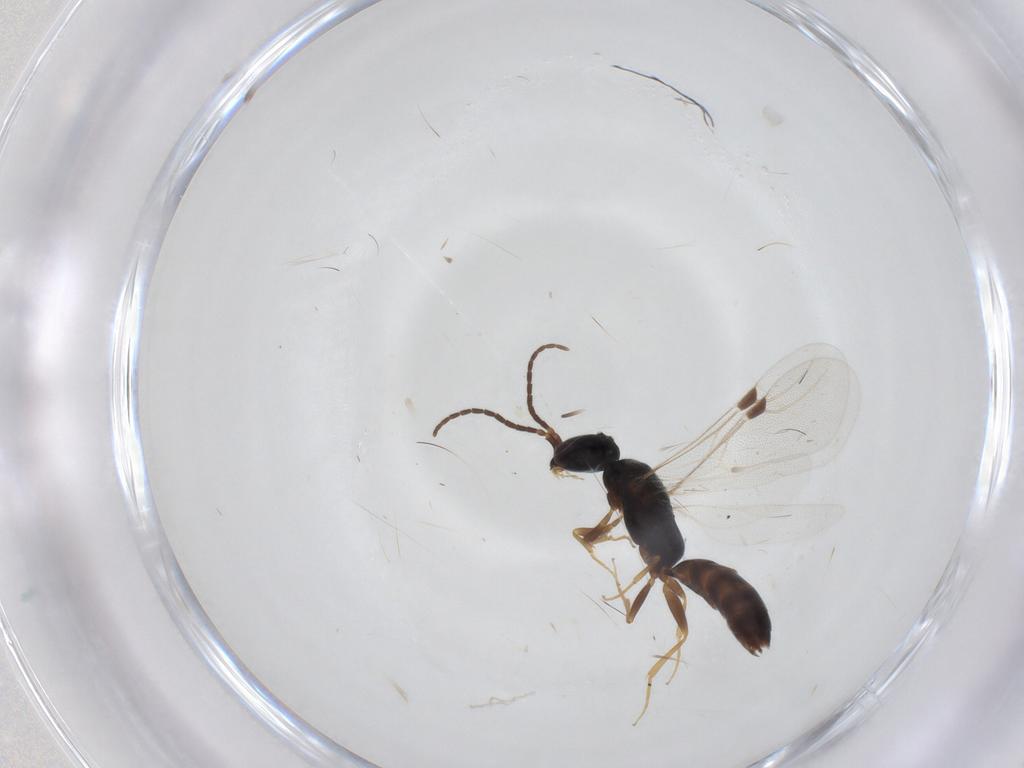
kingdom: Animalia
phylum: Arthropoda
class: Insecta
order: Hymenoptera
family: Bethylidae
